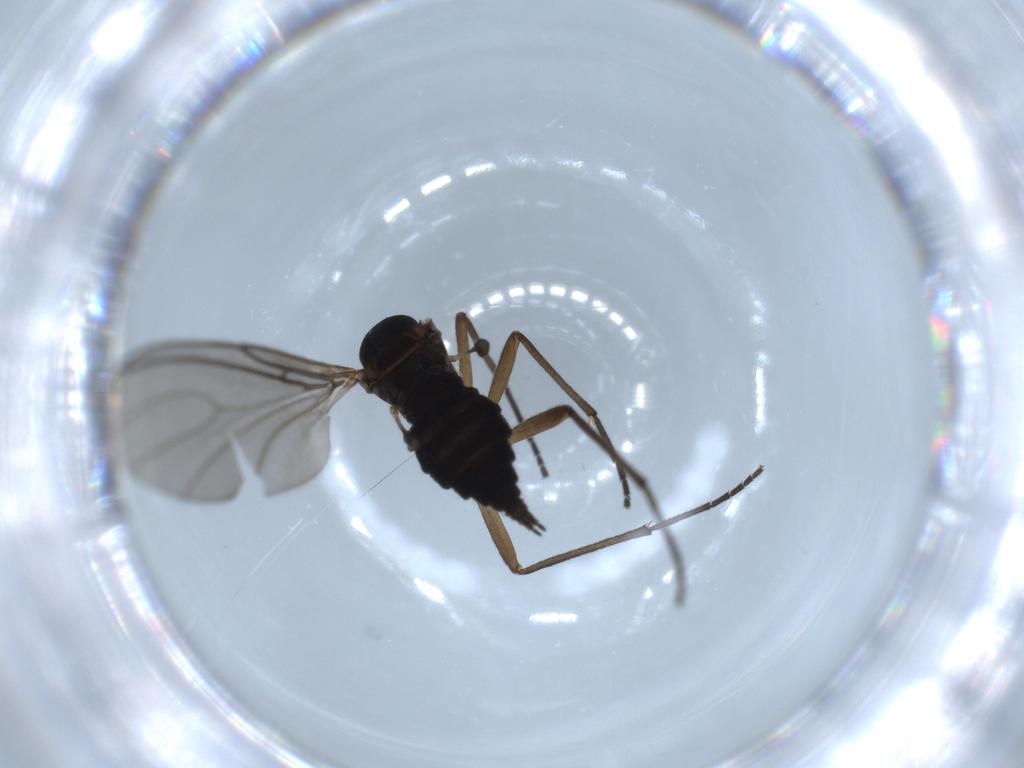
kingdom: Animalia
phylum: Arthropoda
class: Insecta
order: Diptera
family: Sciaridae
